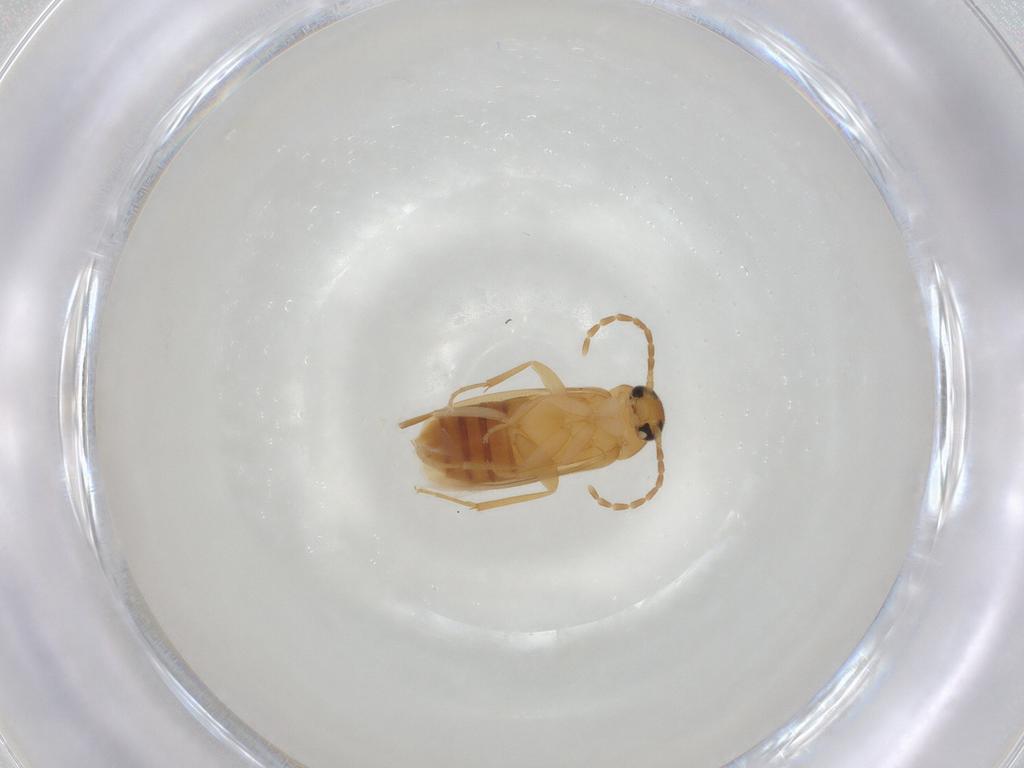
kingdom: Animalia
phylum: Arthropoda
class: Insecta
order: Coleoptera
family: Scraptiidae
